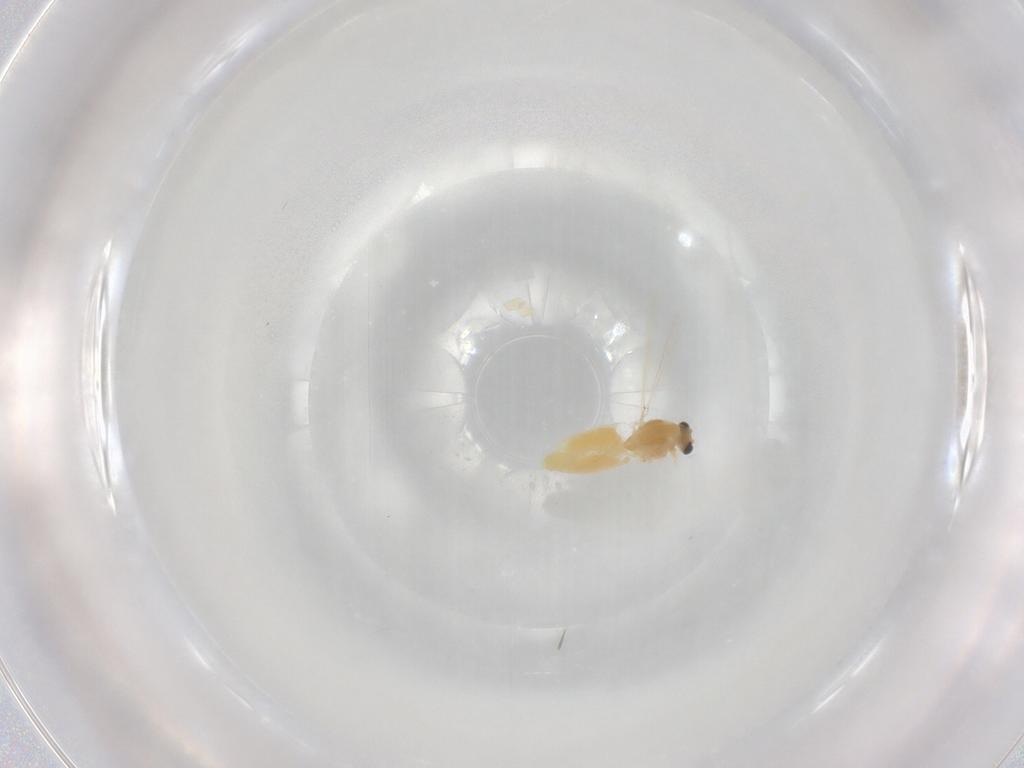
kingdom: Animalia
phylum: Arthropoda
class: Insecta
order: Diptera
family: Chironomidae
